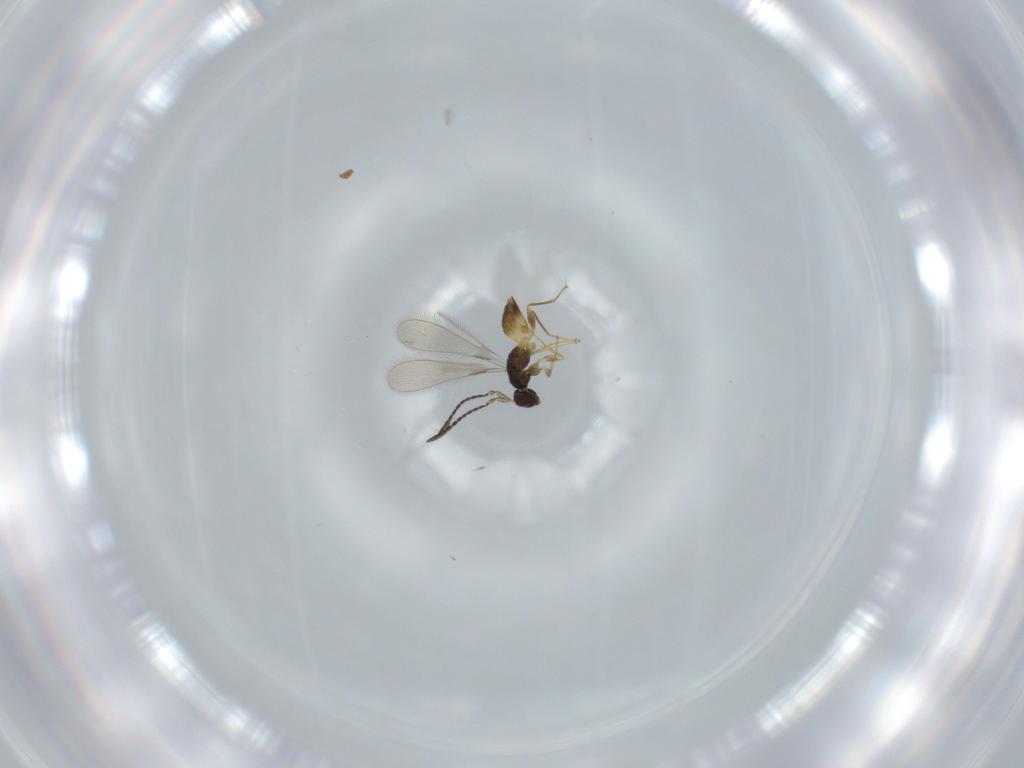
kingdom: Animalia
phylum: Arthropoda
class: Insecta
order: Hymenoptera
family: Mymaridae
